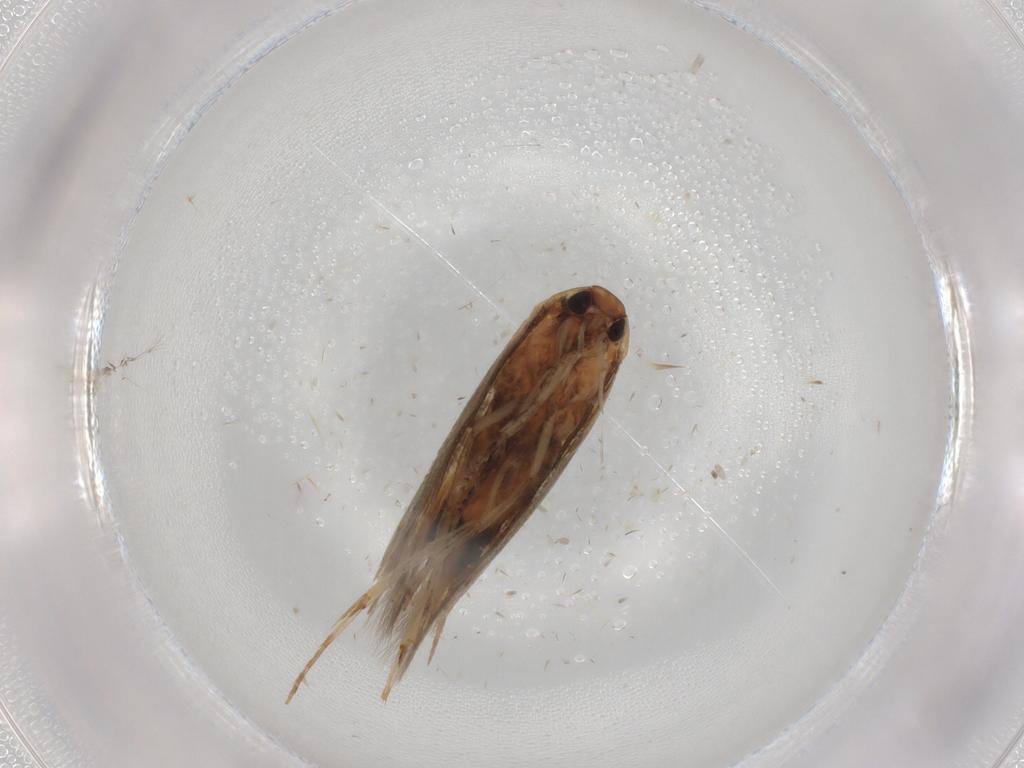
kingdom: Animalia
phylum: Arthropoda
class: Insecta
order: Lepidoptera
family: Cosmopterigidae
